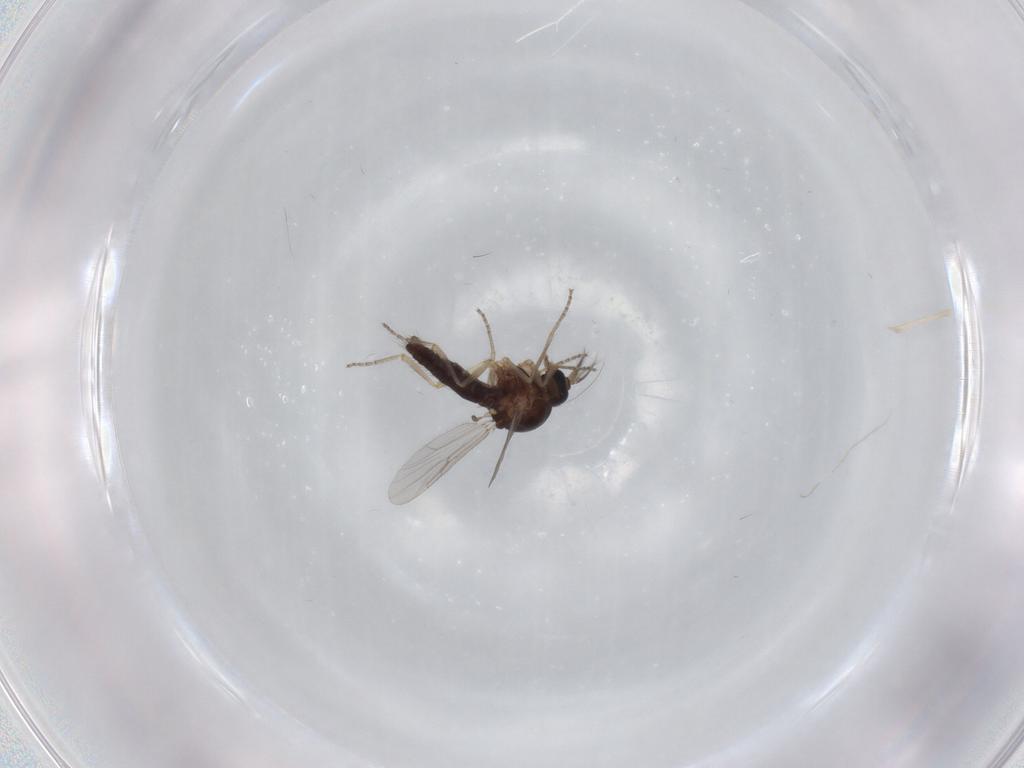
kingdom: Animalia
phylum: Arthropoda
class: Insecta
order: Diptera
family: Ceratopogonidae
